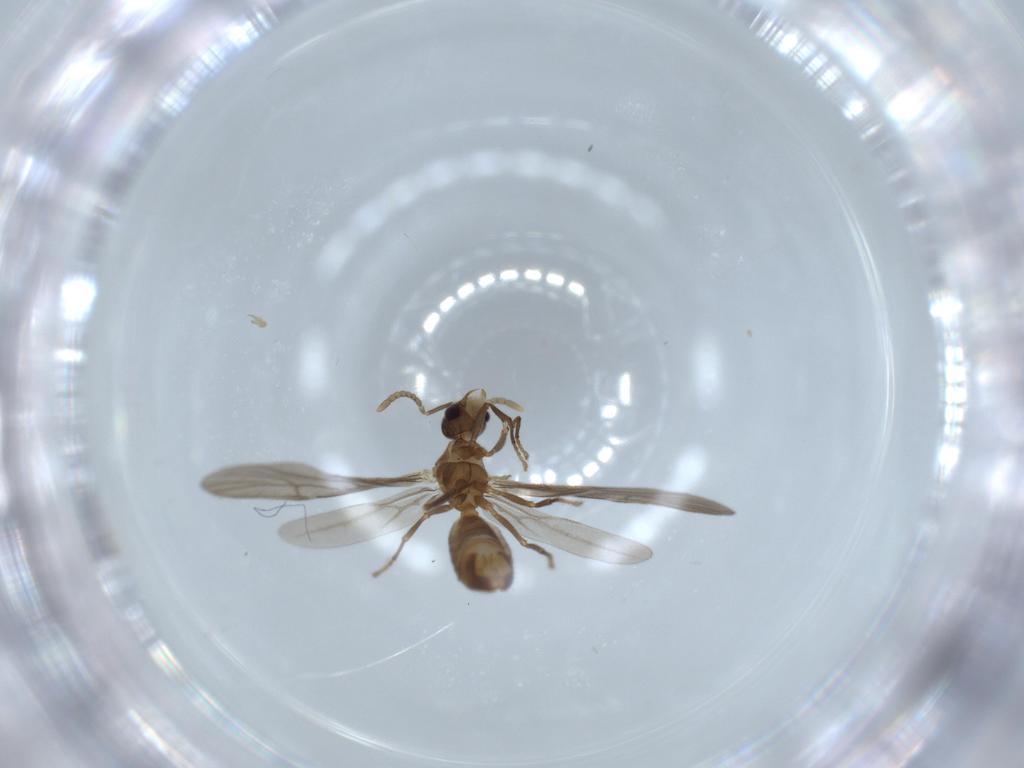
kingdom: Animalia
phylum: Arthropoda
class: Insecta
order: Hymenoptera
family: Formicidae
